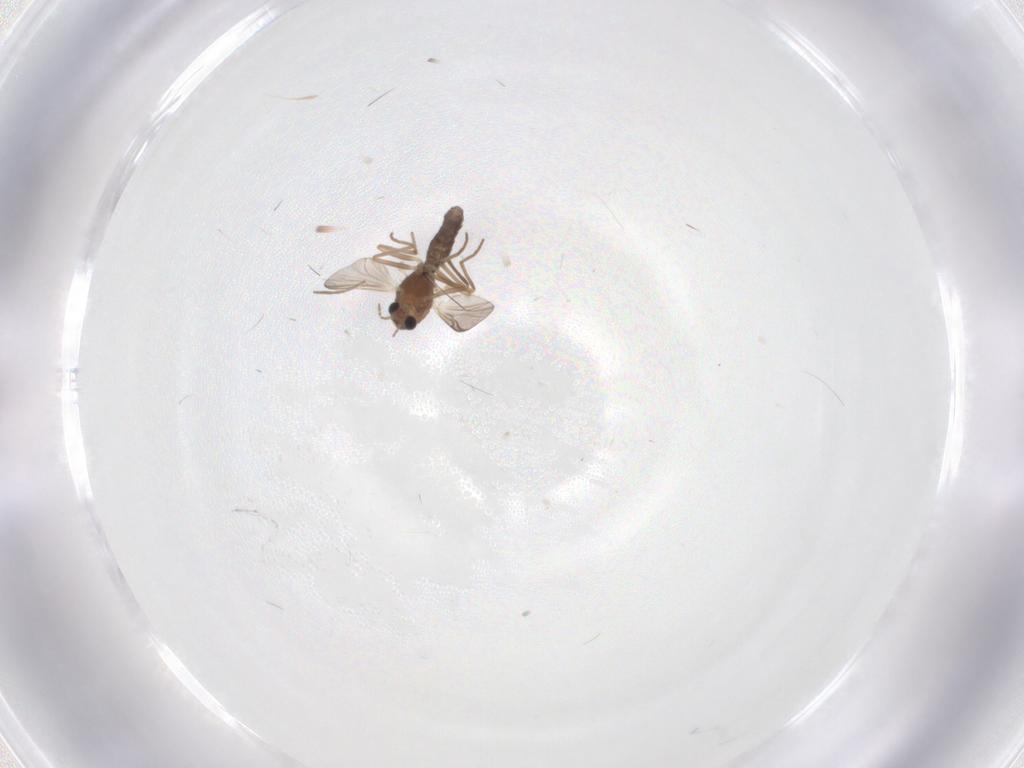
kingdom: Animalia
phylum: Arthropoda
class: Insecta
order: Diptera
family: Chironomidae
